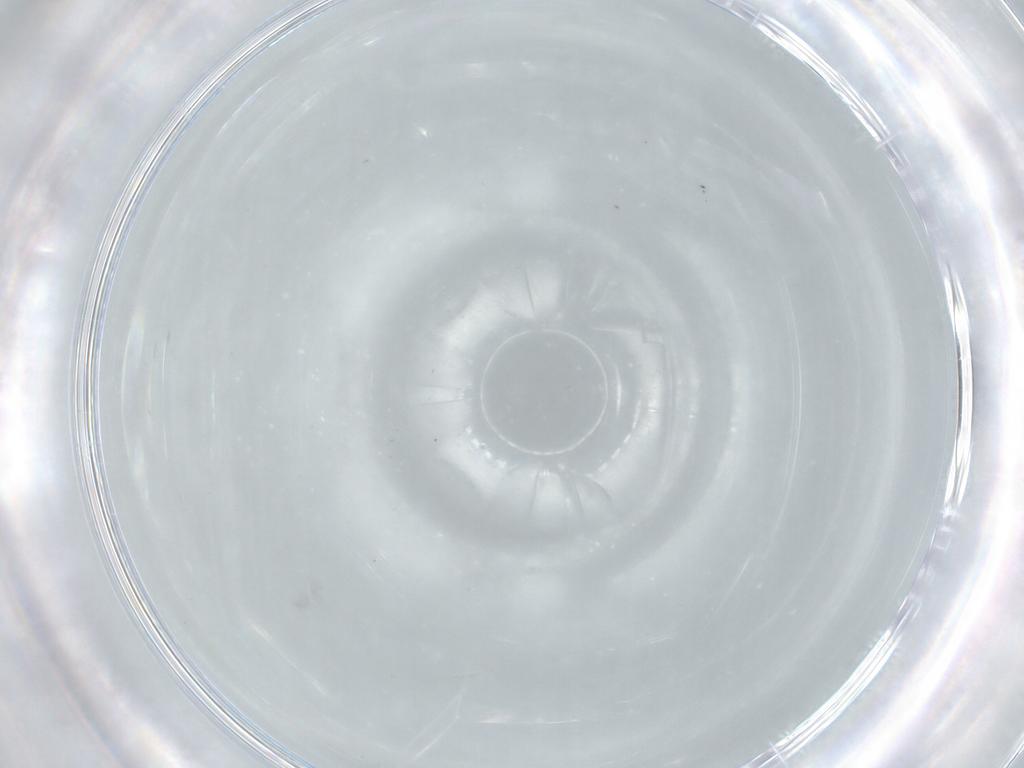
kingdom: Animalia
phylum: Arthropoda
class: Insecta
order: Diptera
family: Cecidomyiidae
